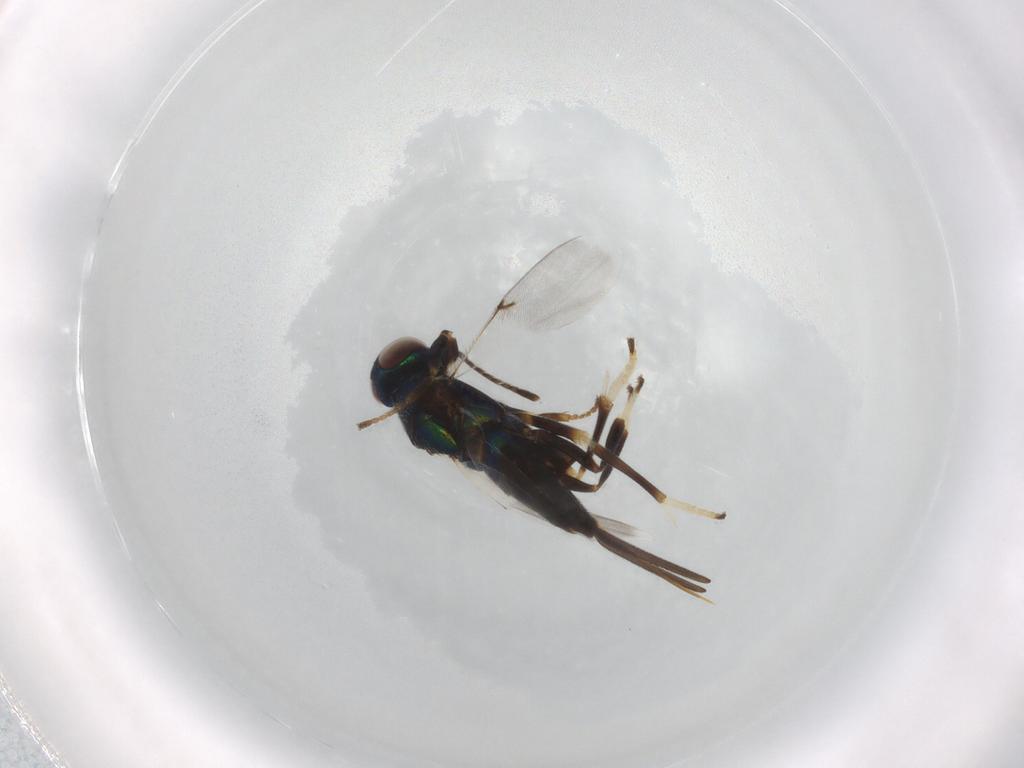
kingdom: Animalia
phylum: Arthropoda
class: Insecta
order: Hymenoptera
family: Encyrtidae
